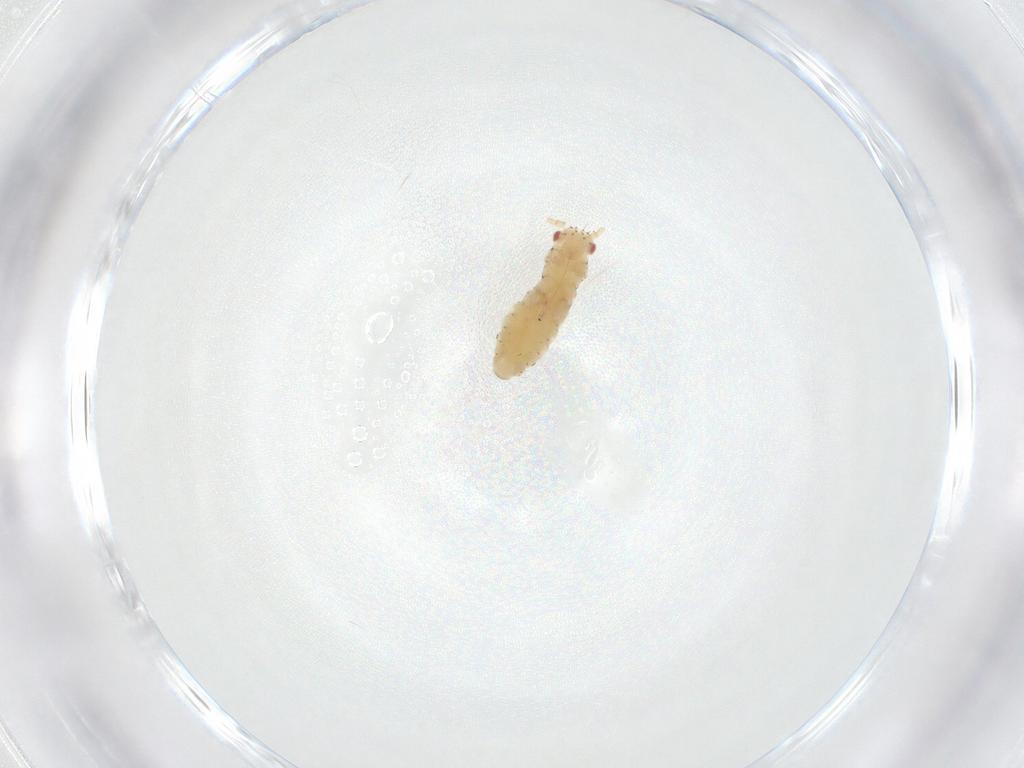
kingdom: Animalia
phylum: Arthropoda
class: Insecta
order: Hemiptera
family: Aphididae
